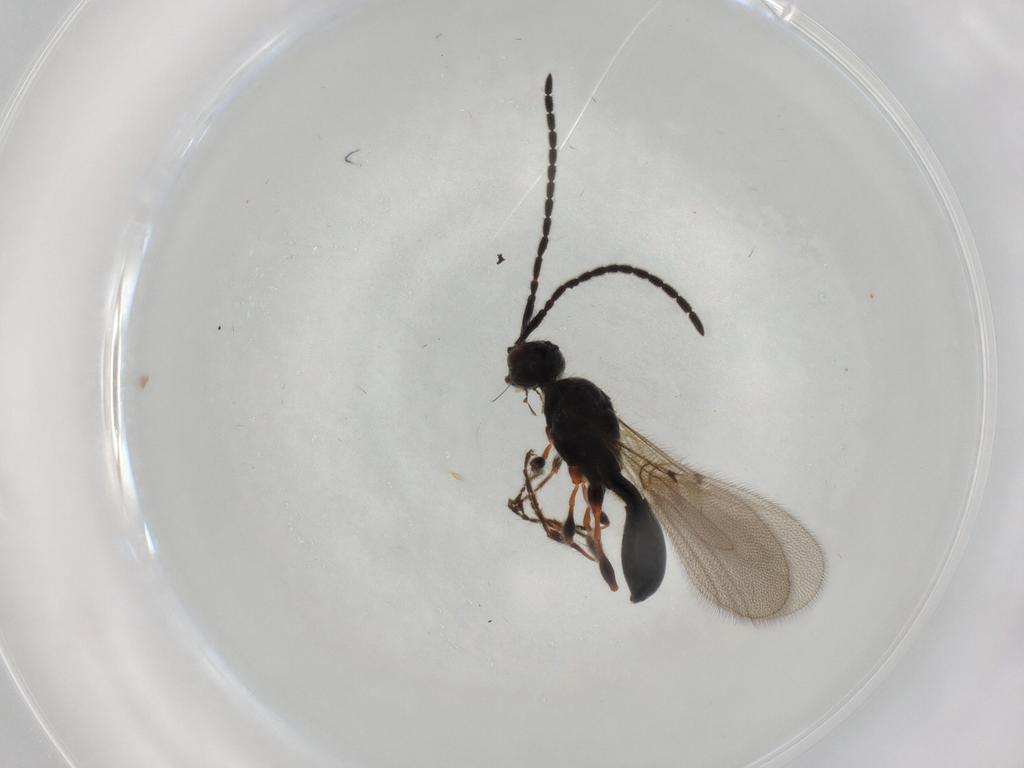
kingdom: Animalia
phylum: Arthropoda
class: Insecta
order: Hymenoptera
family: Diapriidae
